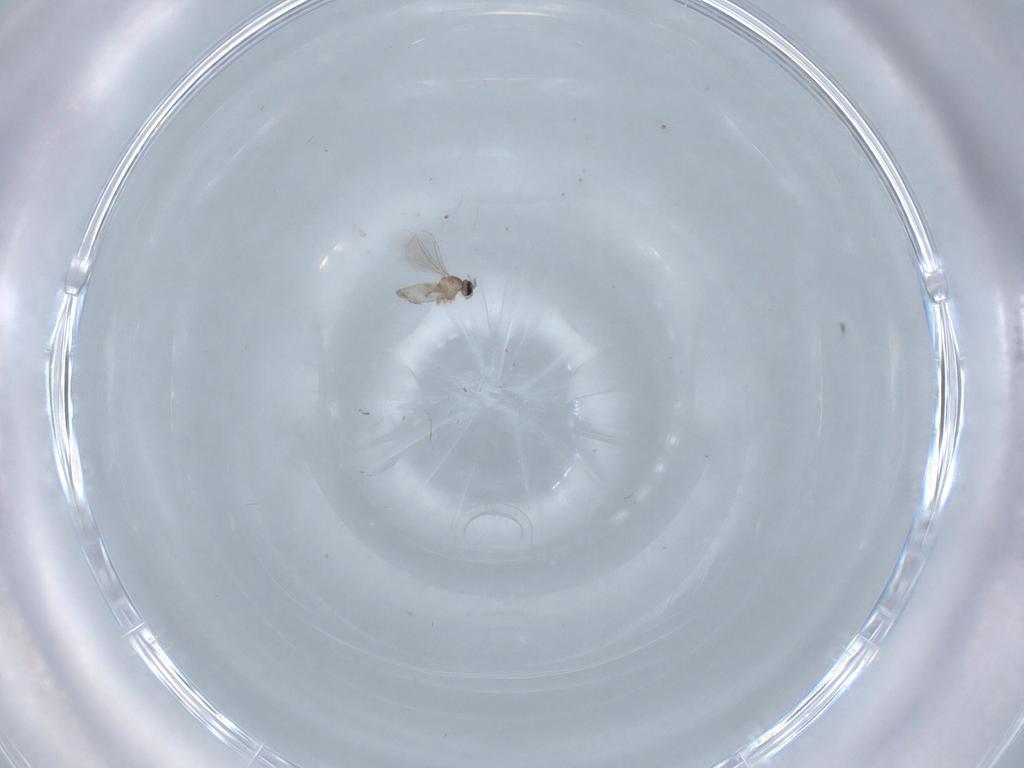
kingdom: Animalia
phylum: Arthropoda
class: Insecta
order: Diptera
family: Cecidomyiidae
